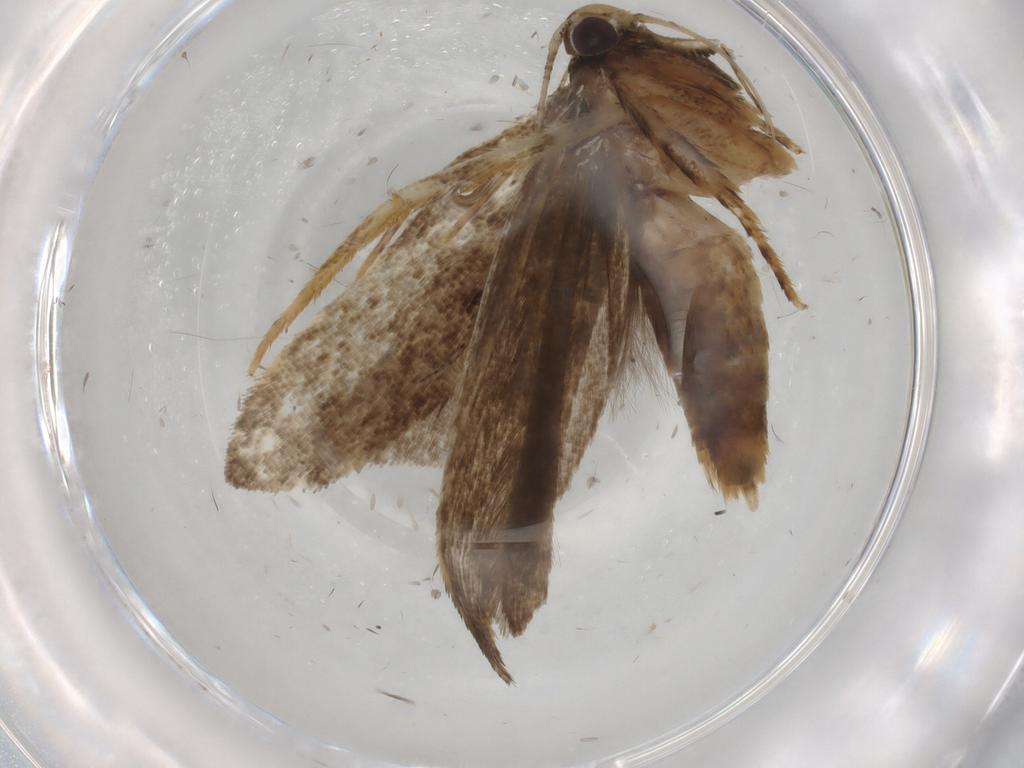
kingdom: Animalia
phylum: Arthropoda
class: Insecta
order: Lepidoptera
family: Gelechiidae
